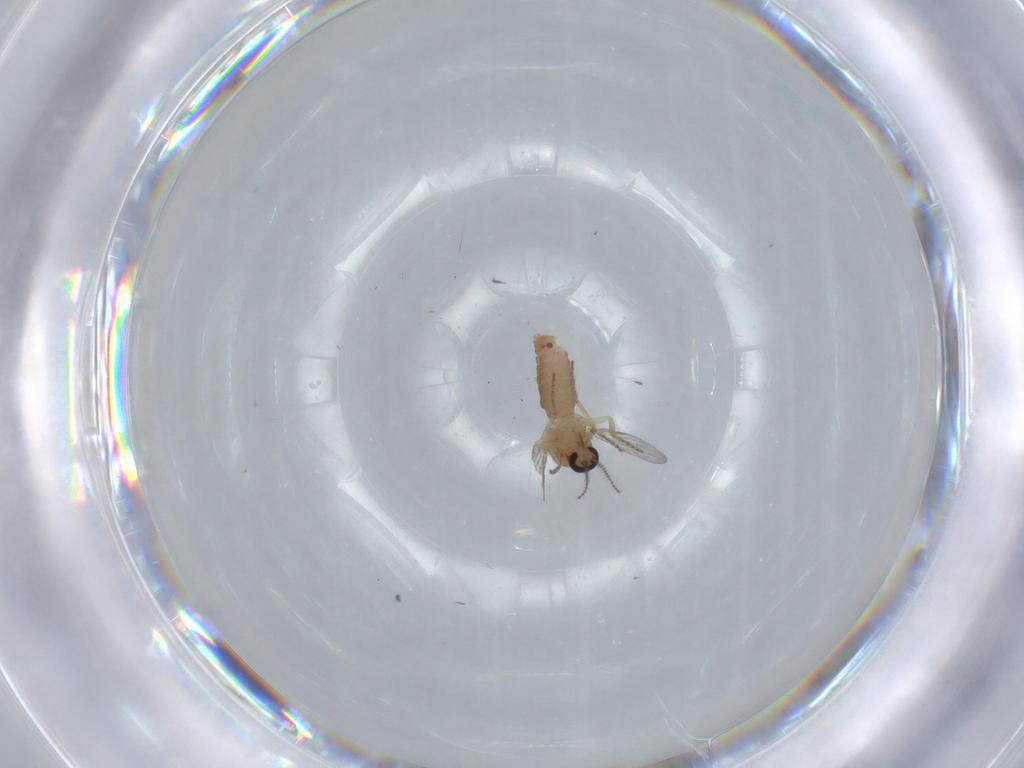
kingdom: Animalia
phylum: Arthropoda
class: Insecta
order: Diptera
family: Ceratopogonidae
